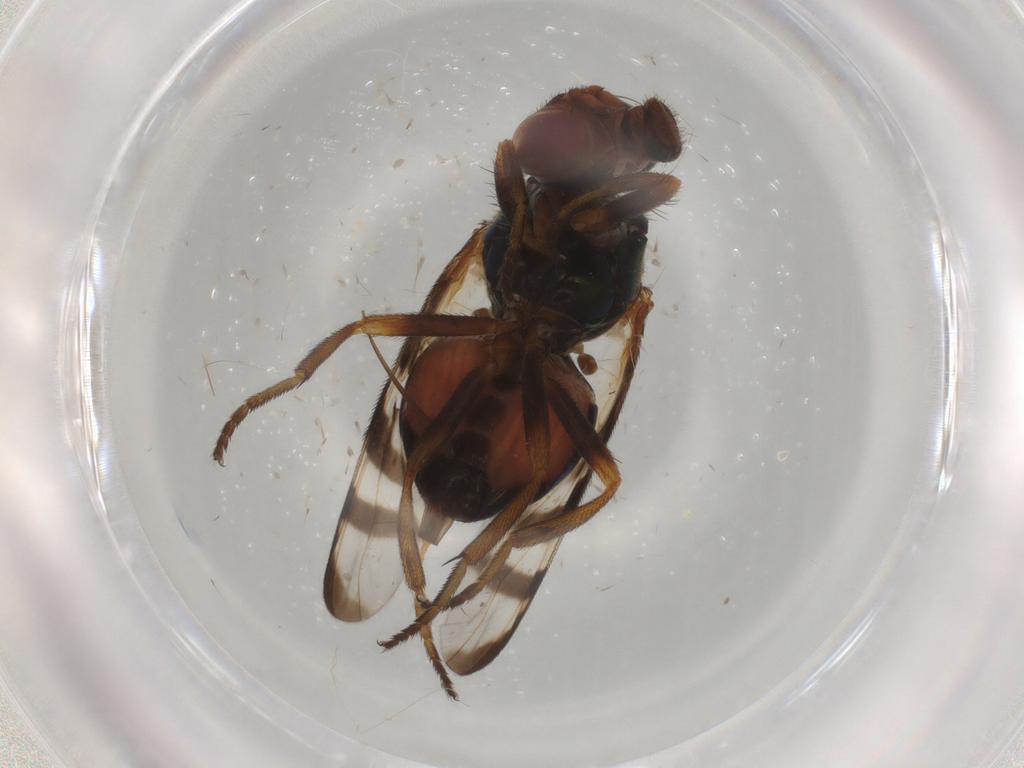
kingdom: Animalia
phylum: Arthropoda
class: Insecta
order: Diptera
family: Chaoboridae
